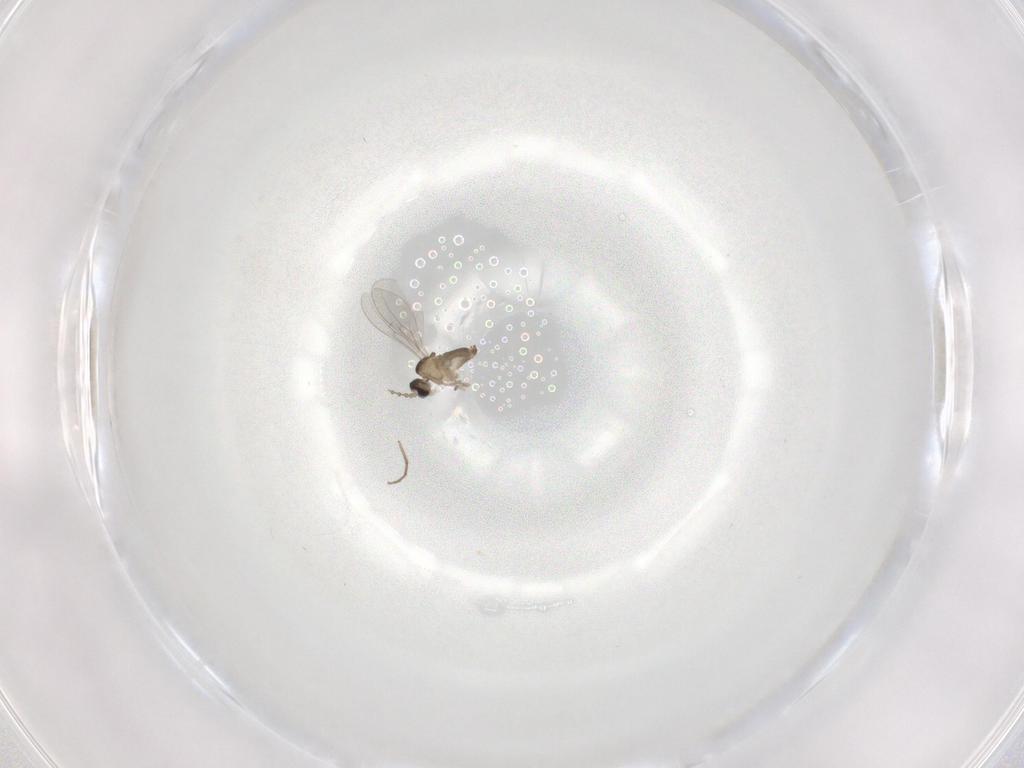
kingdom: Animalia
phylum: Arthropoda
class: Insecta
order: Diptera
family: Cecidomyiidae
